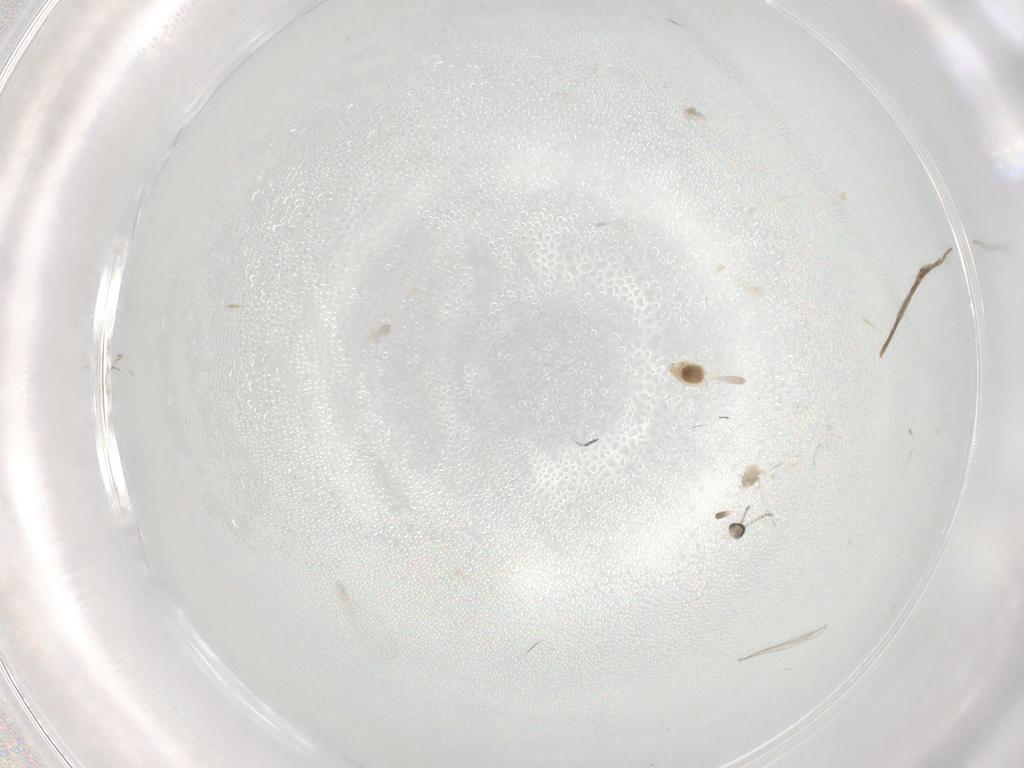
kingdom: Animalia
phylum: Arthropoda
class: Insecta
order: Diptera
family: Cecidomyiidae
